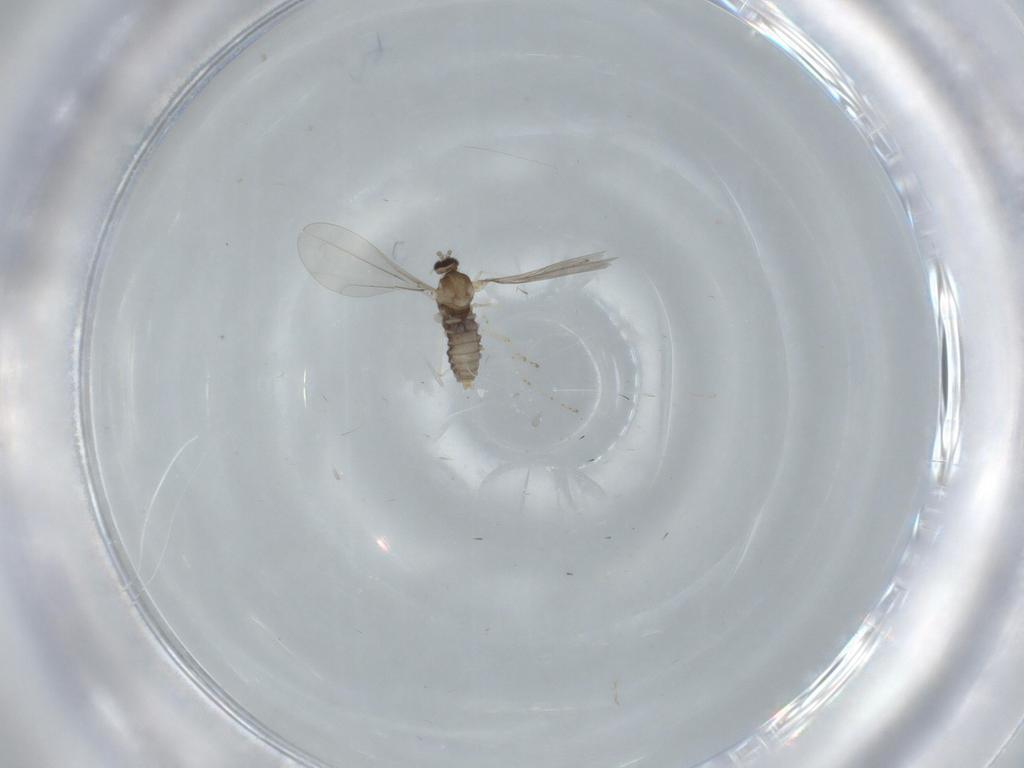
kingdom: Animalia
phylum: Arthropoda
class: Insecta
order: Diptera
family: Cecidomyiidae
